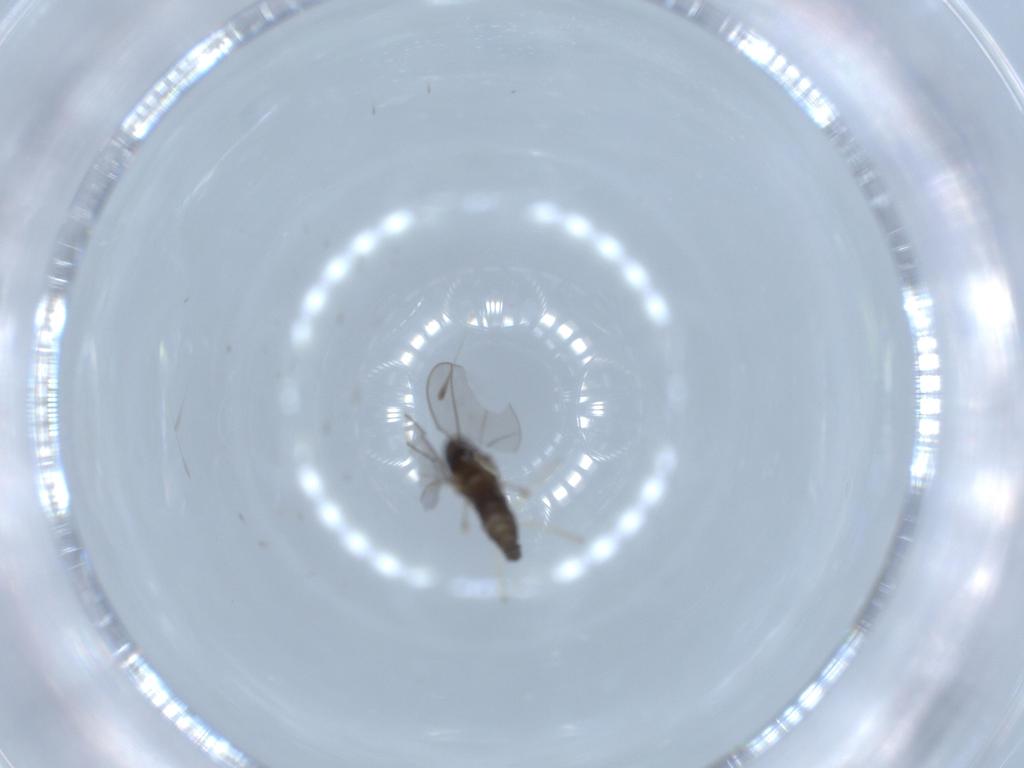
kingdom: Animalia
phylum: Arthropoda
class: Insecta
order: Diptera
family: Cecidomyiidae
